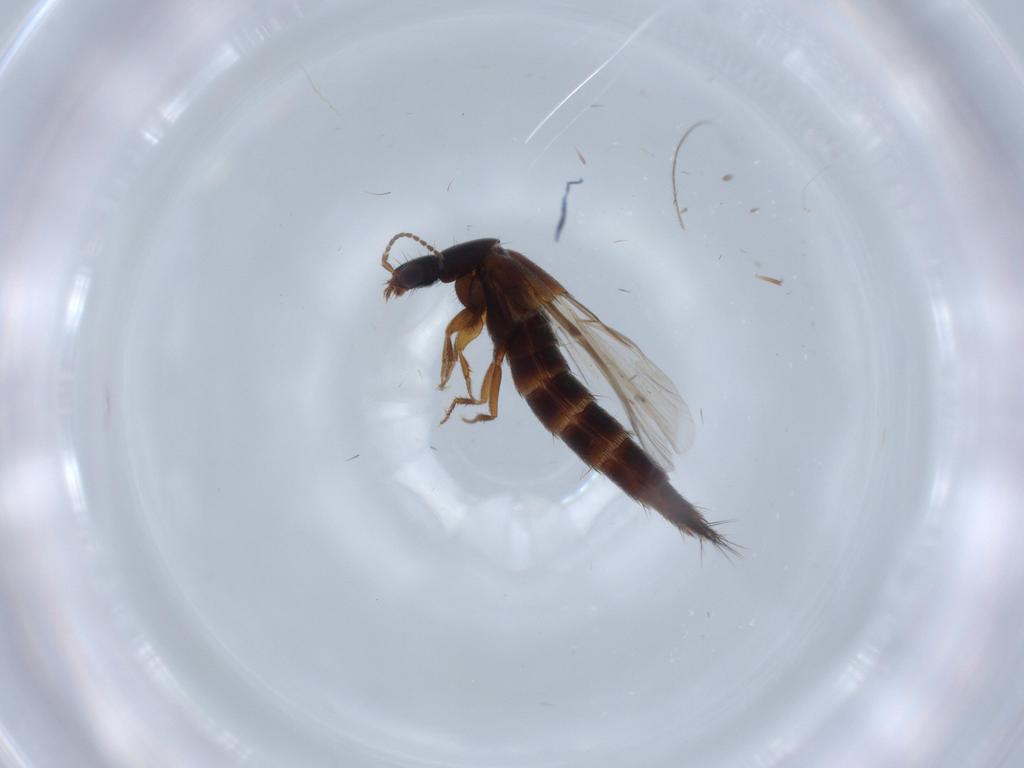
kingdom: Animalia
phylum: Arthropoda
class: Insecta
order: Coleoptera
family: Staphylinidae
